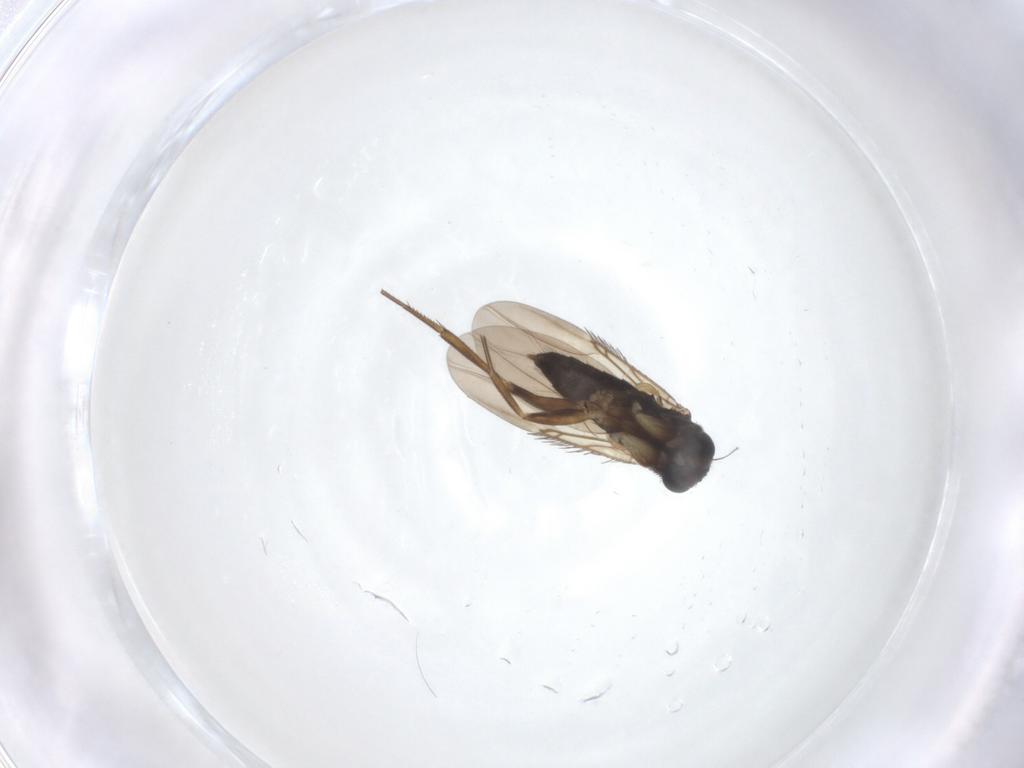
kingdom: Animalia
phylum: Arthropoda
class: Insecta
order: Diptera
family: Phoridae
